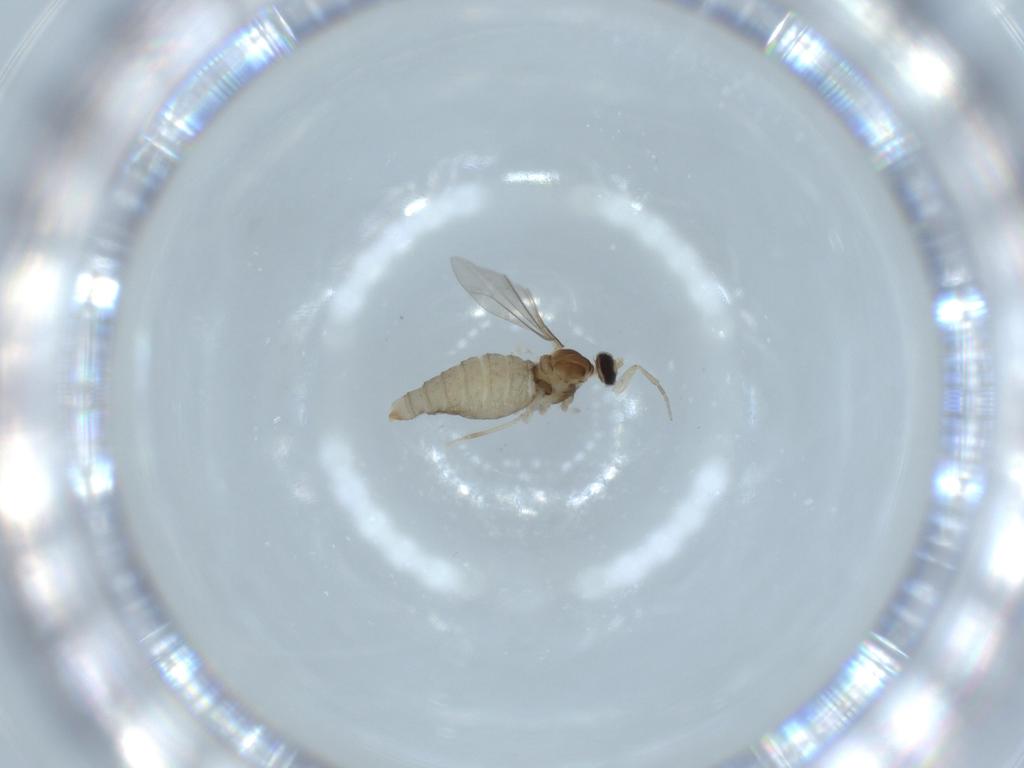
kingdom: Animalia
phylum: Arthropoda
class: Insecta
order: Diptera
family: Cecidomyiidae
